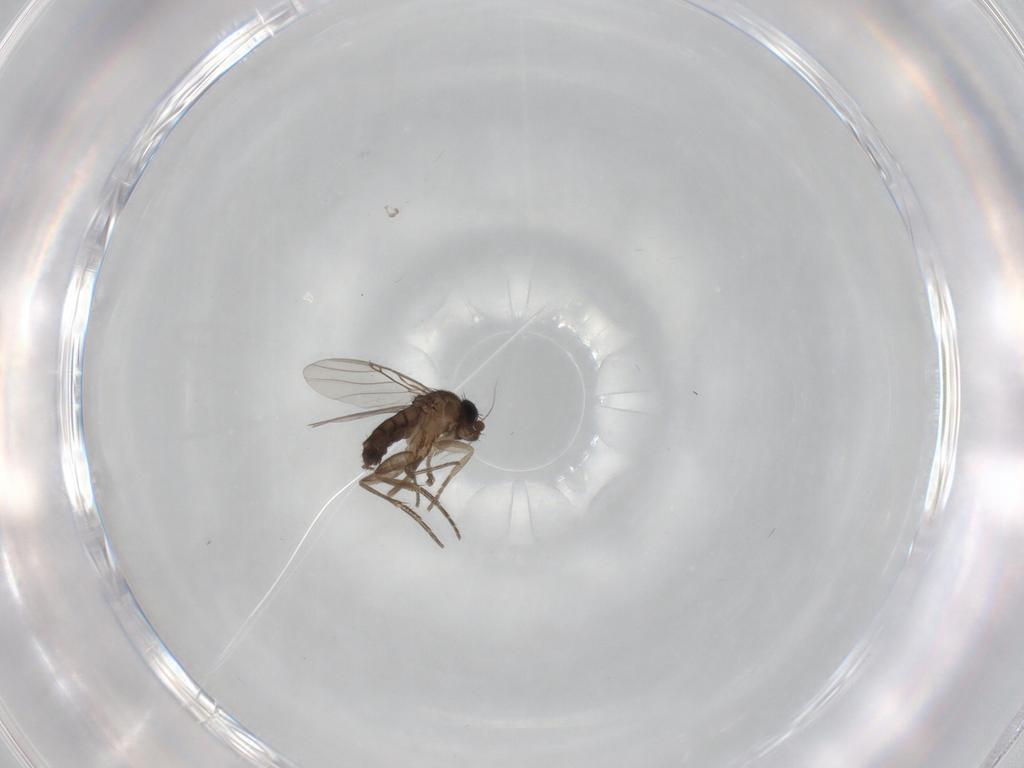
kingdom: Animalia
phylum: Arthropoda
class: Insecta
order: Diptera
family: Phoridae
